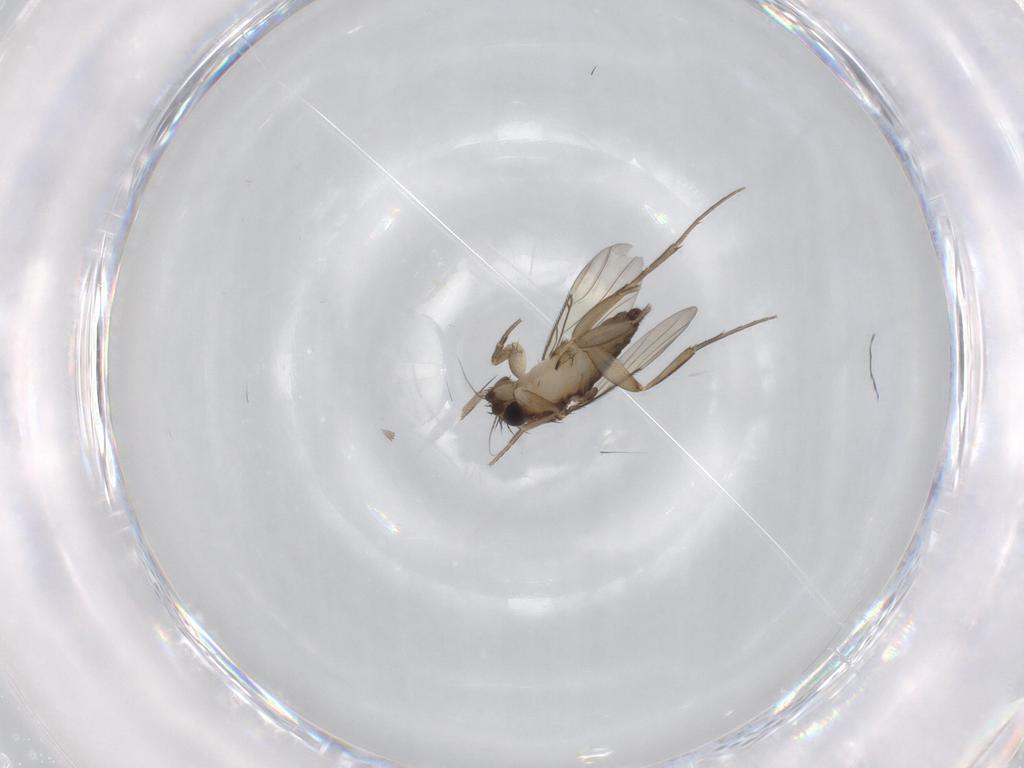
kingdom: Animalia
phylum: Arthropoda
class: Insecta
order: Diptera
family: Phoridae
